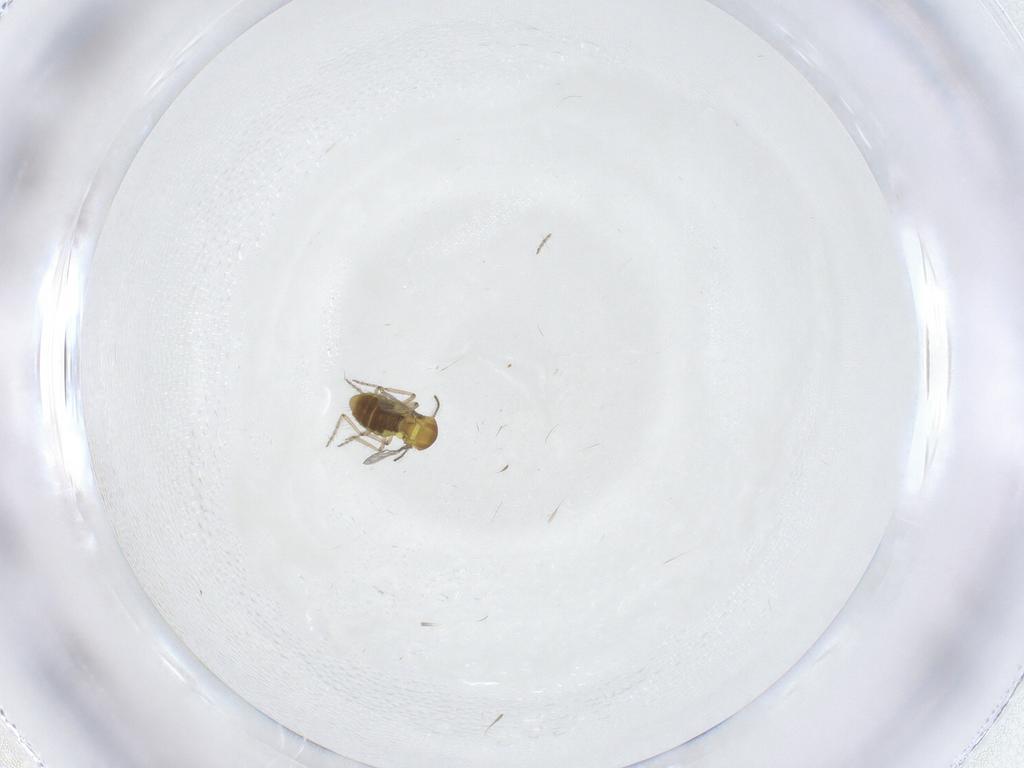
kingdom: Animalia
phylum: Arthropoda
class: Insecta
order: Diptera
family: Ceratopogonidae
